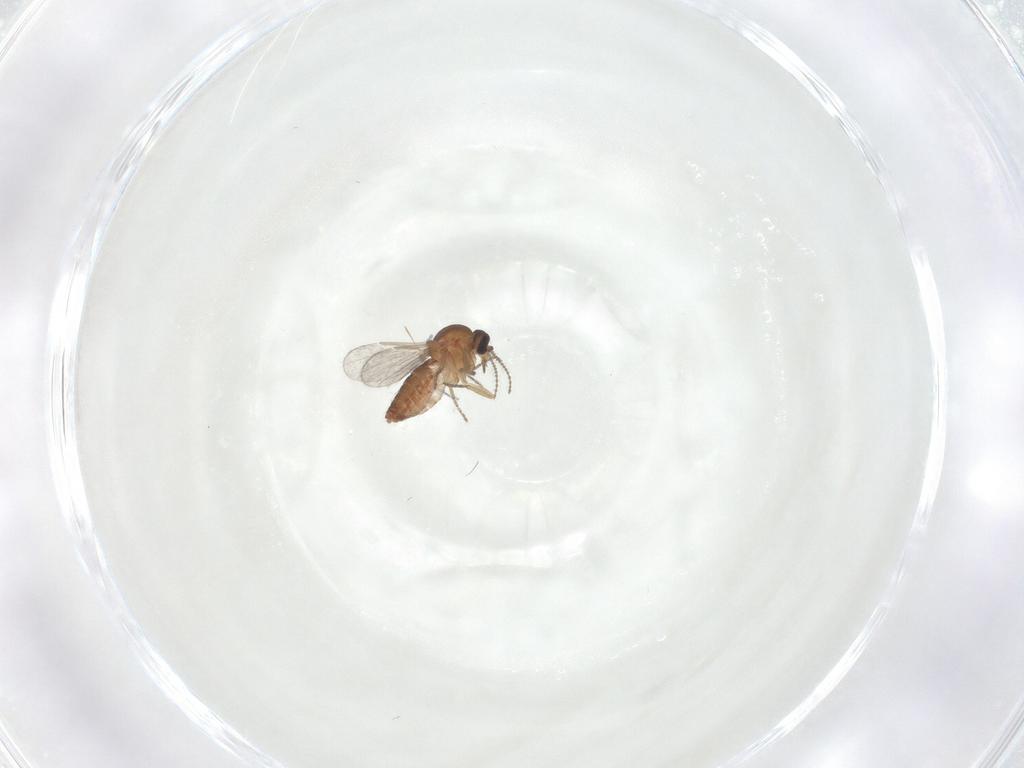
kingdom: Animalia
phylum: Arthropoda
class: Insecta
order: Diptera
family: Ceratopogonidae
